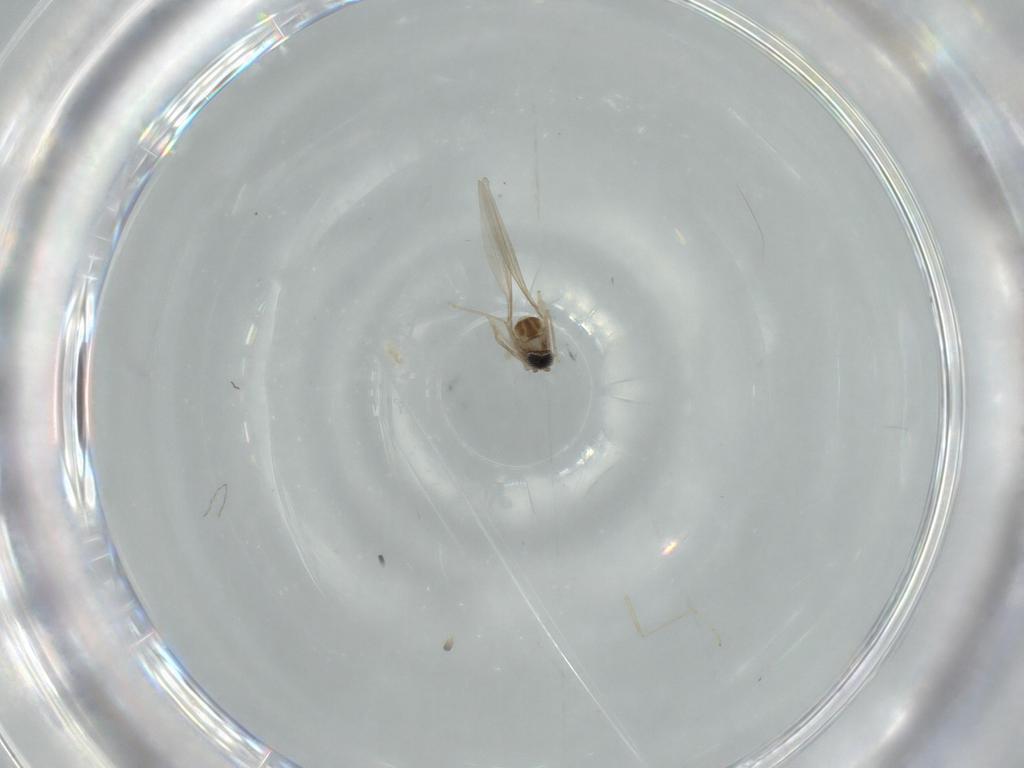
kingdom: Animalia
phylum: Arthropoda
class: Insecta
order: Diptera
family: Cecidomyiidae
